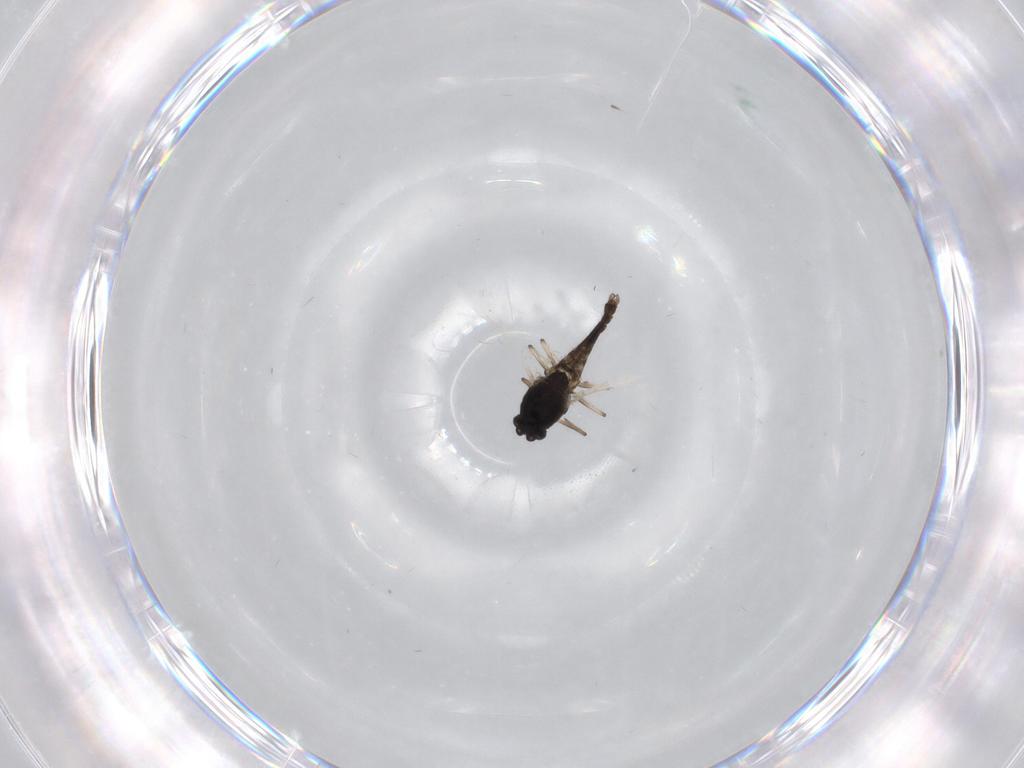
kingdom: Animalia
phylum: Arthropoda
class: Insecta
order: Diptera
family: Chironomidae
